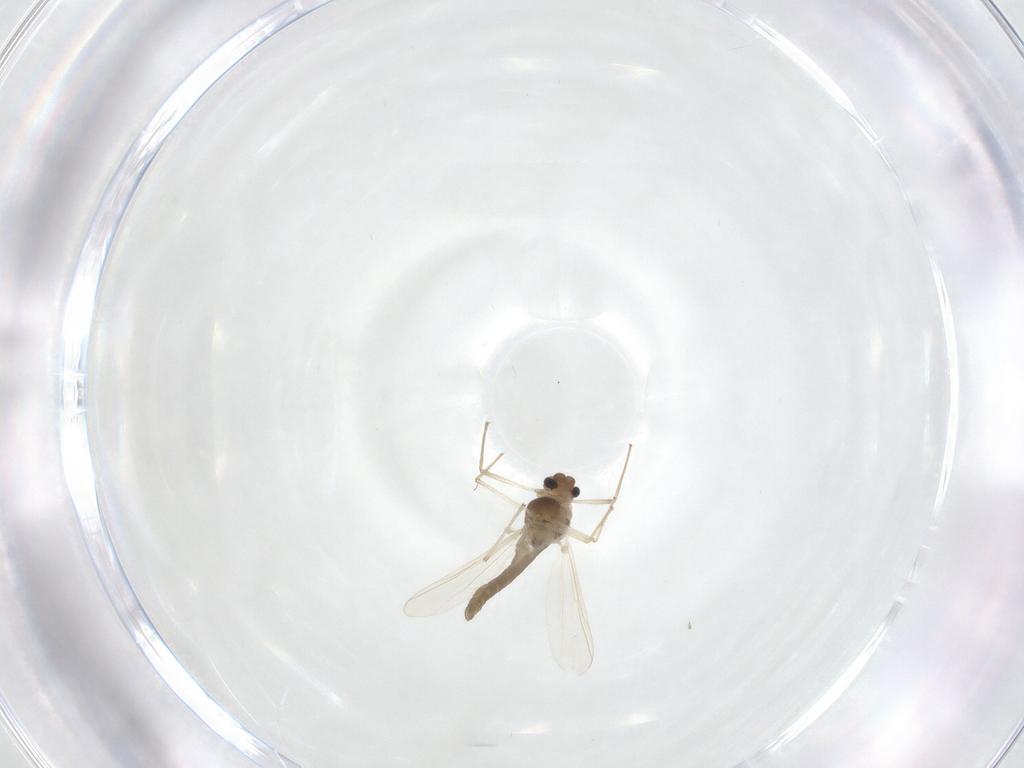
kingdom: Animalia
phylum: Arthropoda
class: Insecta
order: Diptera
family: Chironomidae
